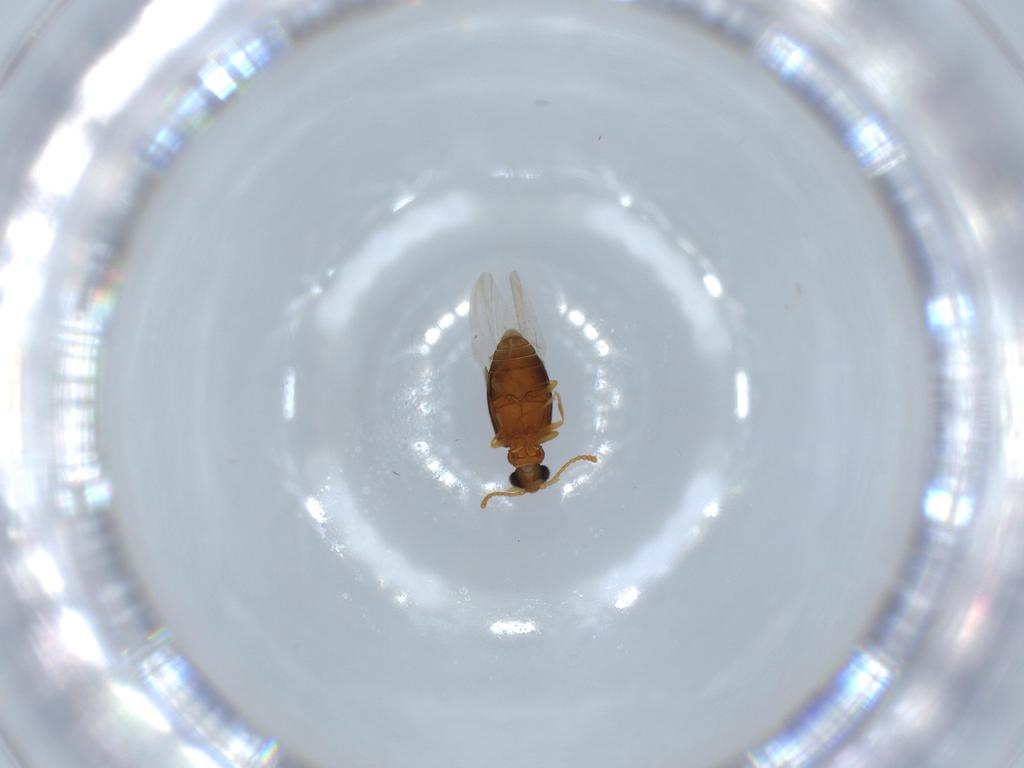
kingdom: Animalia
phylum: Arthropoda
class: Insecta
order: Coleoptera
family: Aderidae
